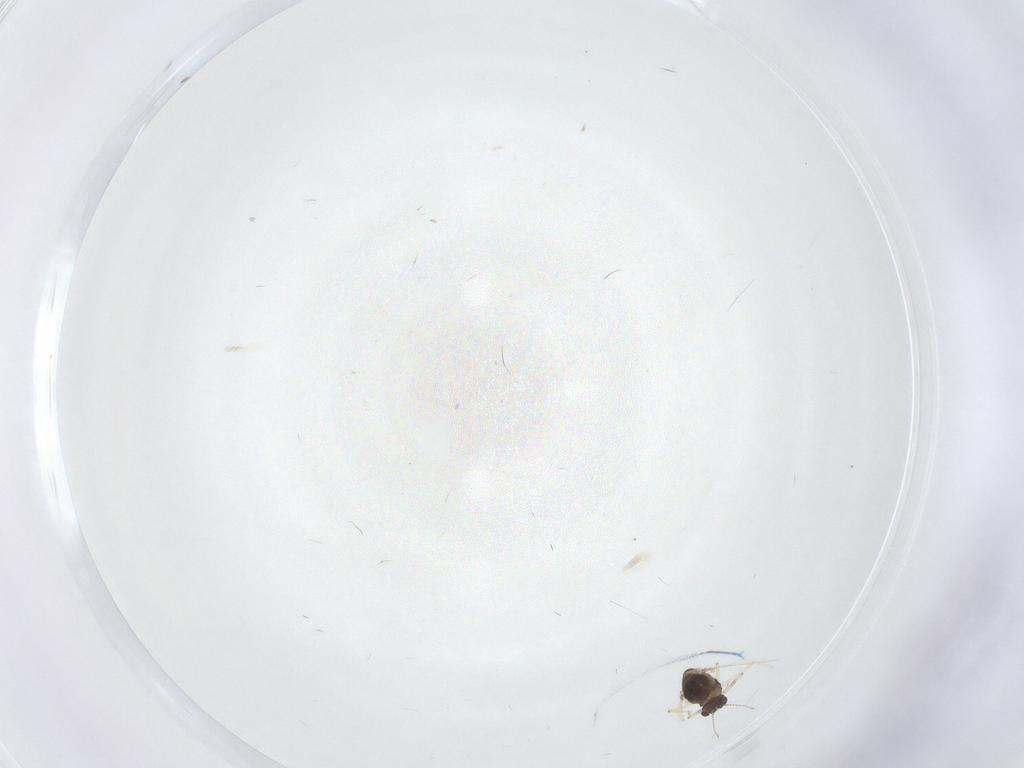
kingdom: Animalia
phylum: Arthropoda
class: Insecta
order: Diptera
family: Chironomidae
